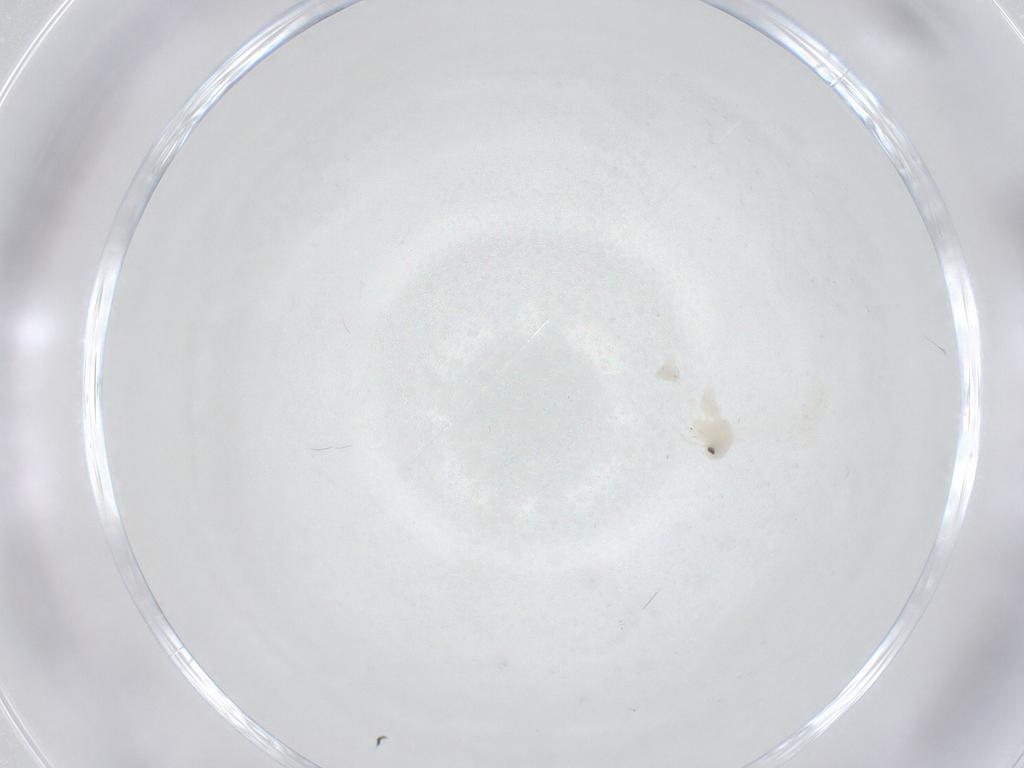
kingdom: Animalia
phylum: Arthropoda
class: Insecta
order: Hemiptera
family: Aleyrodidae
